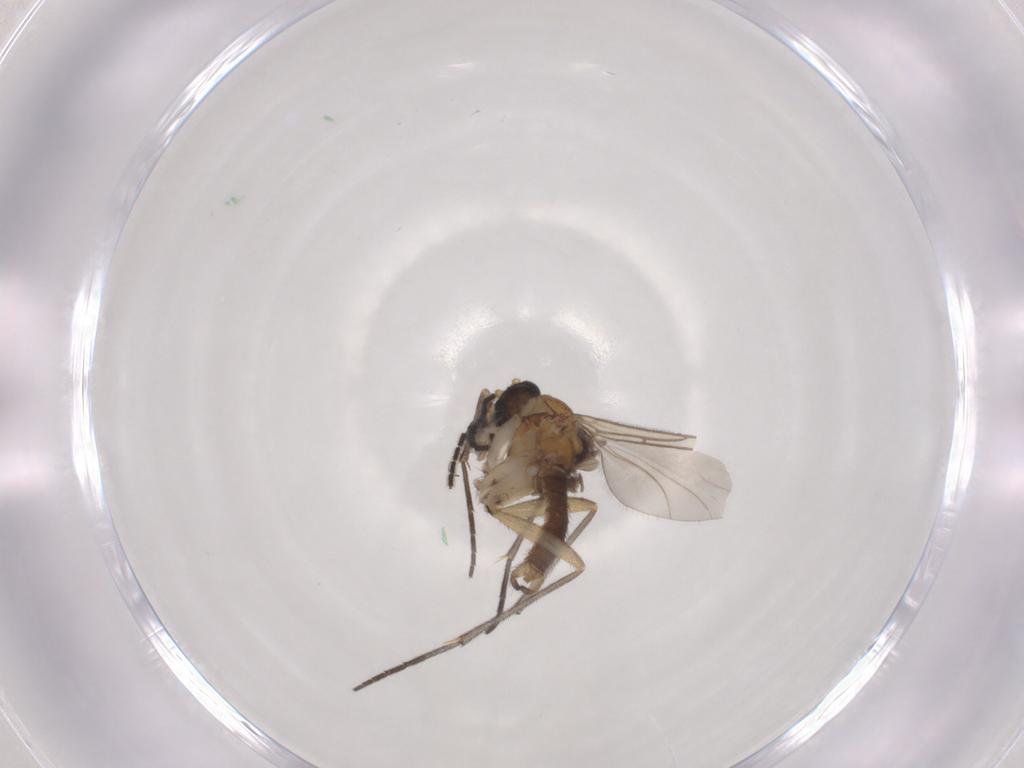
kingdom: Animalia
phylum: Arthropoda
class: Insecta
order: Diptera
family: Sciaridae
